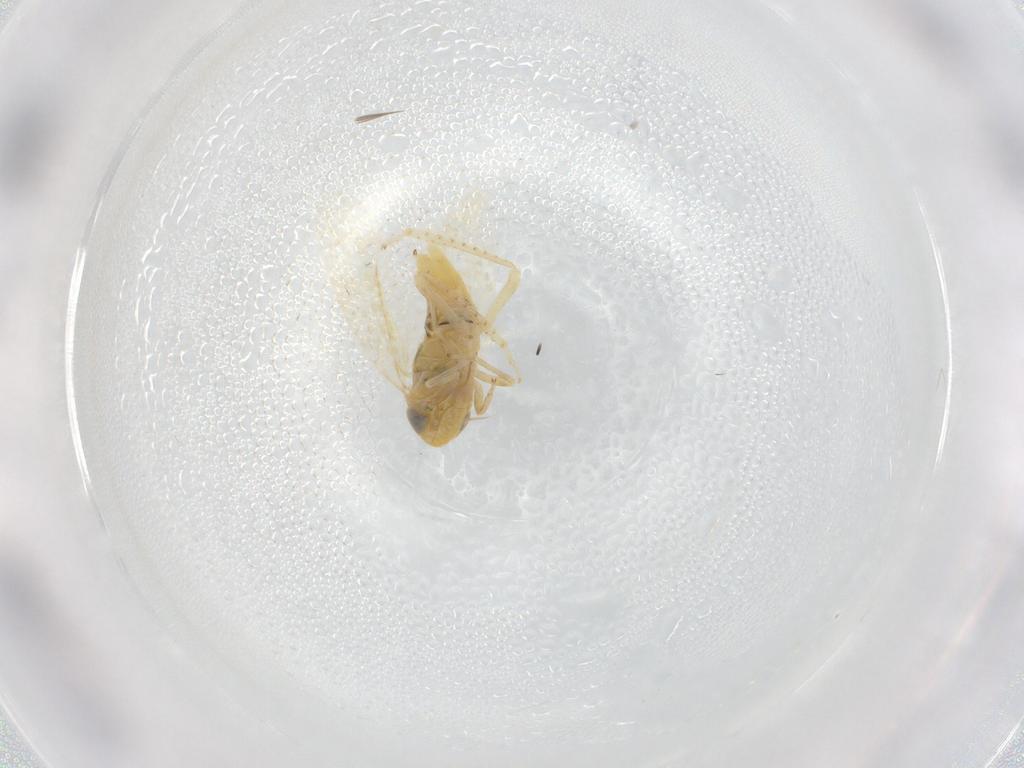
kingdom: Animalia
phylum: Arthropoda
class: Insecta
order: Hemiptera
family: Cicadellidae
